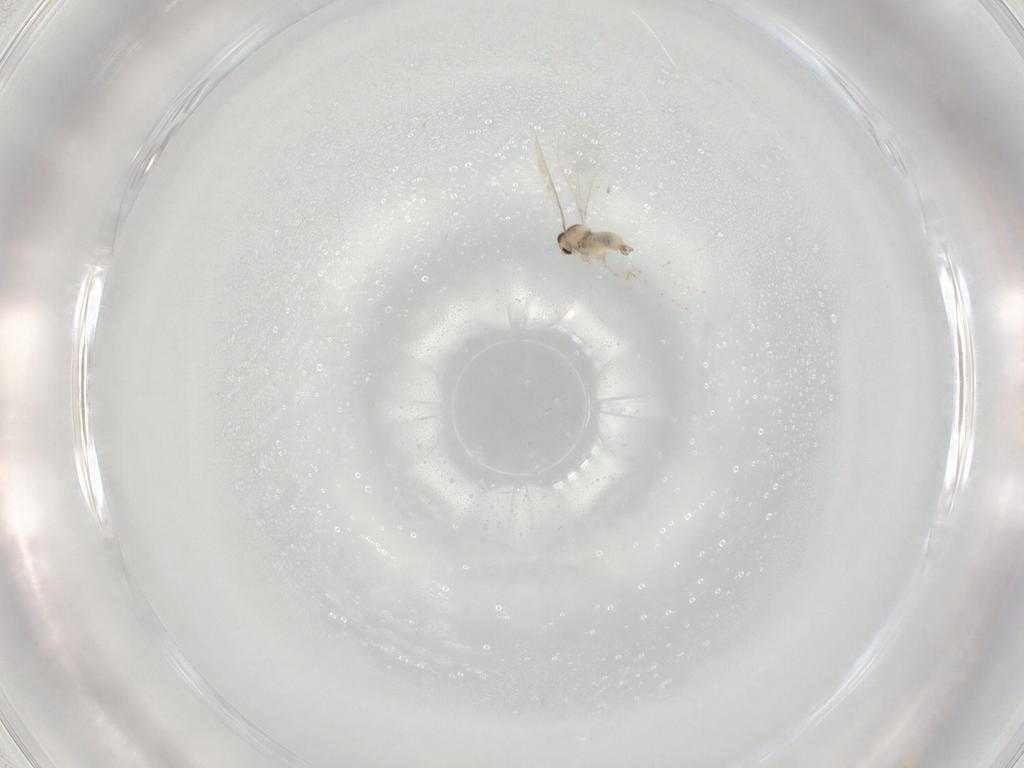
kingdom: Animalia
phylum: Arthropoda
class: Insecta
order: Diptera
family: Cecidomyiidae
